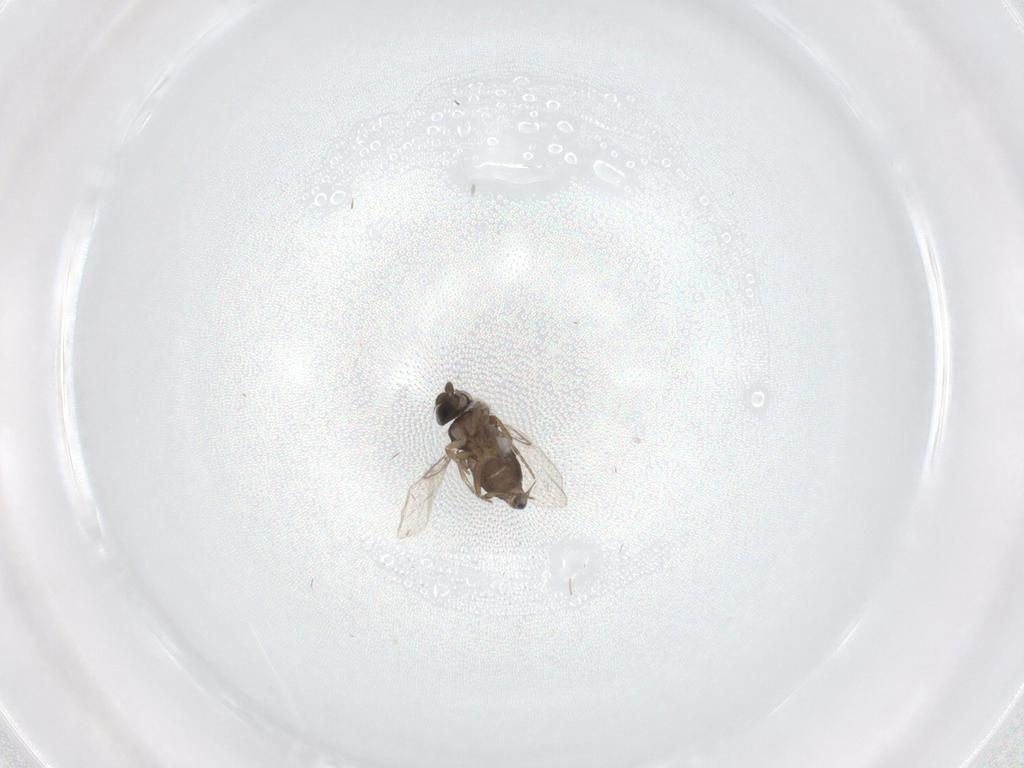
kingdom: Animalia
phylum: Arthropoda
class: Insecta
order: Diptera
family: Phoridae
